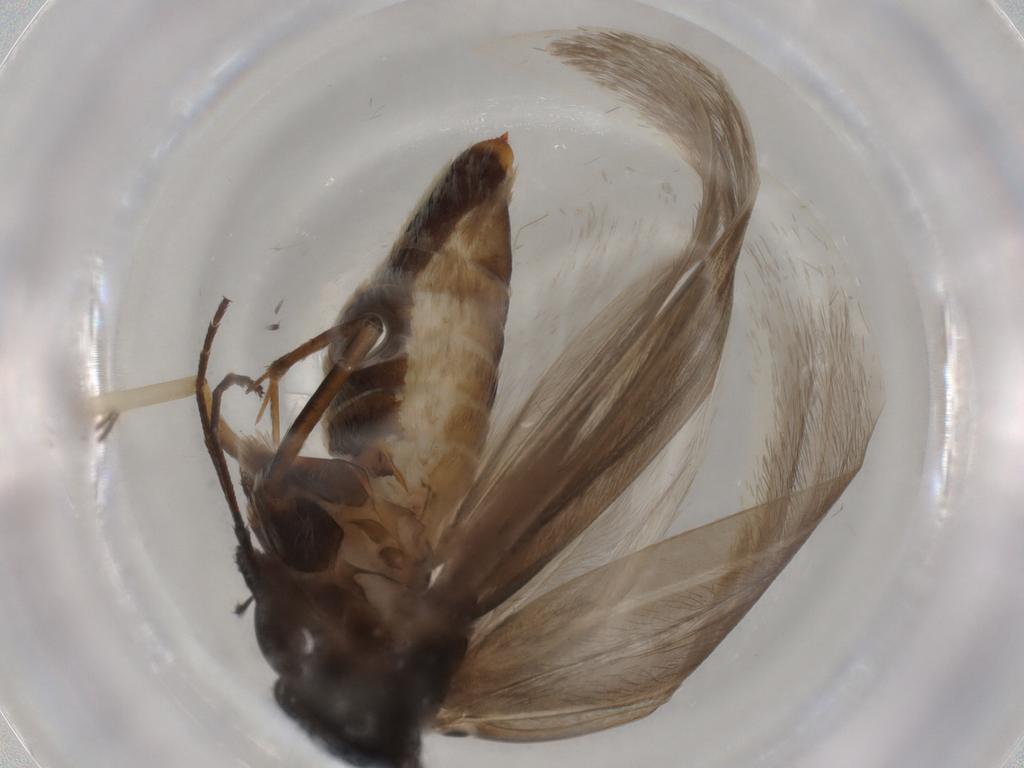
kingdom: Animalia
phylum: Arthropoda
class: Insecta
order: Lepidoptera
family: Adelidae
